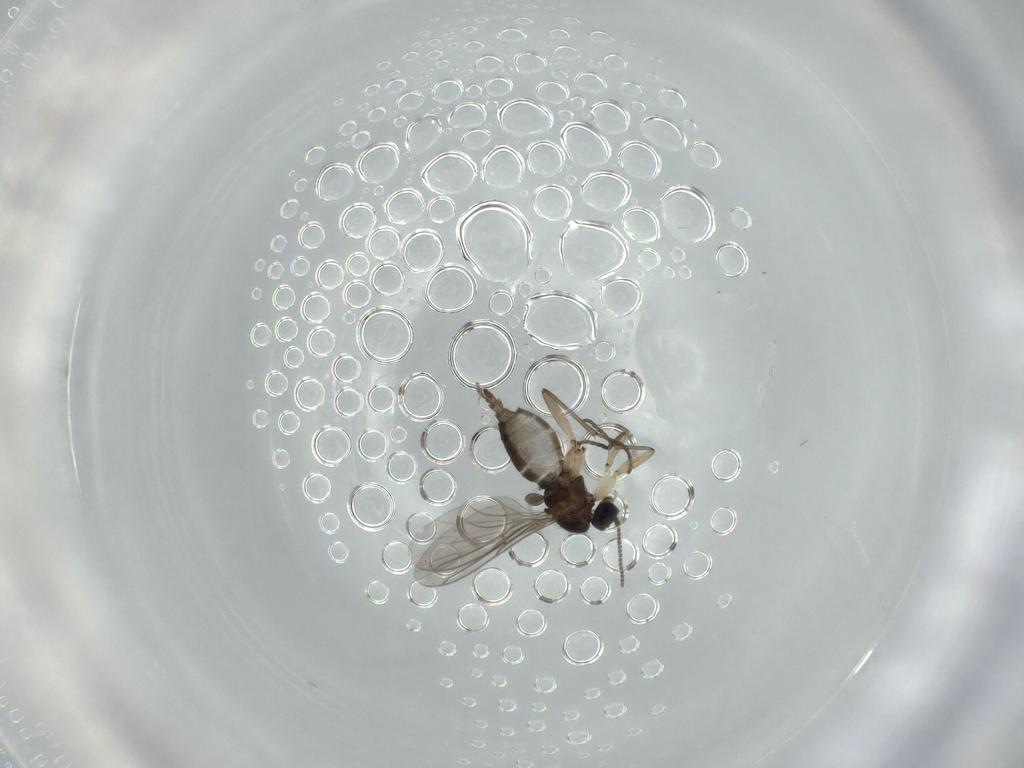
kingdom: Animalia
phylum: Arthropoda
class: Insecta
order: Diptera
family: Sciaridae
